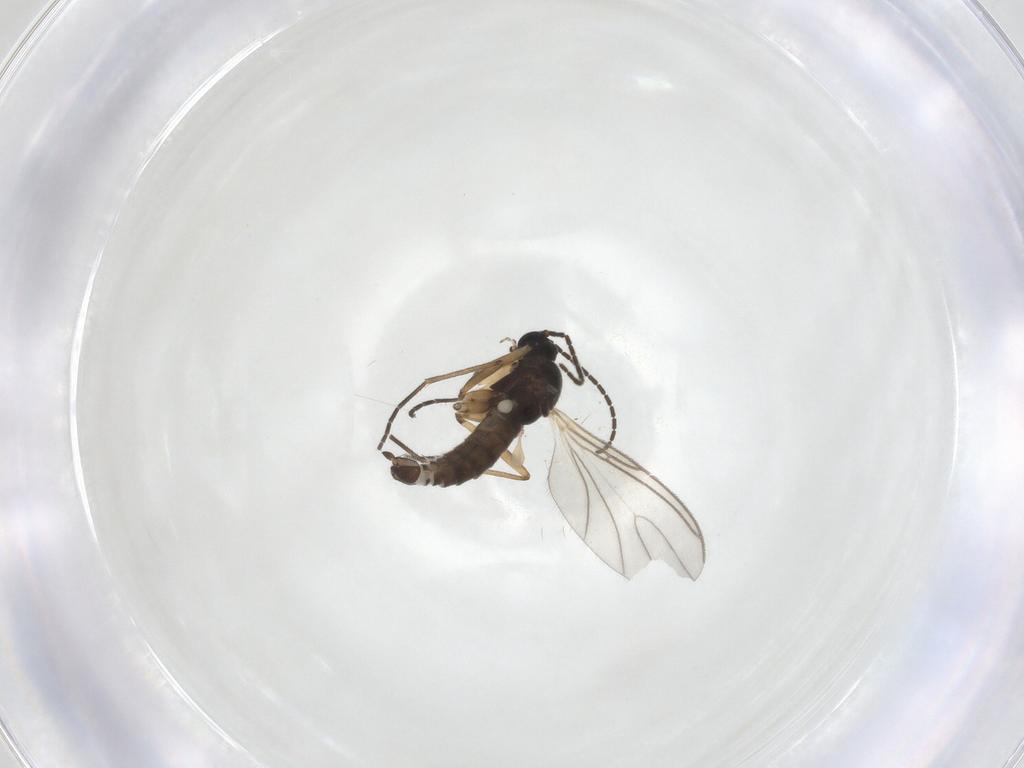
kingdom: Animalia
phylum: Arthropoda
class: Insecta
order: Diptera
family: Sciaridae
